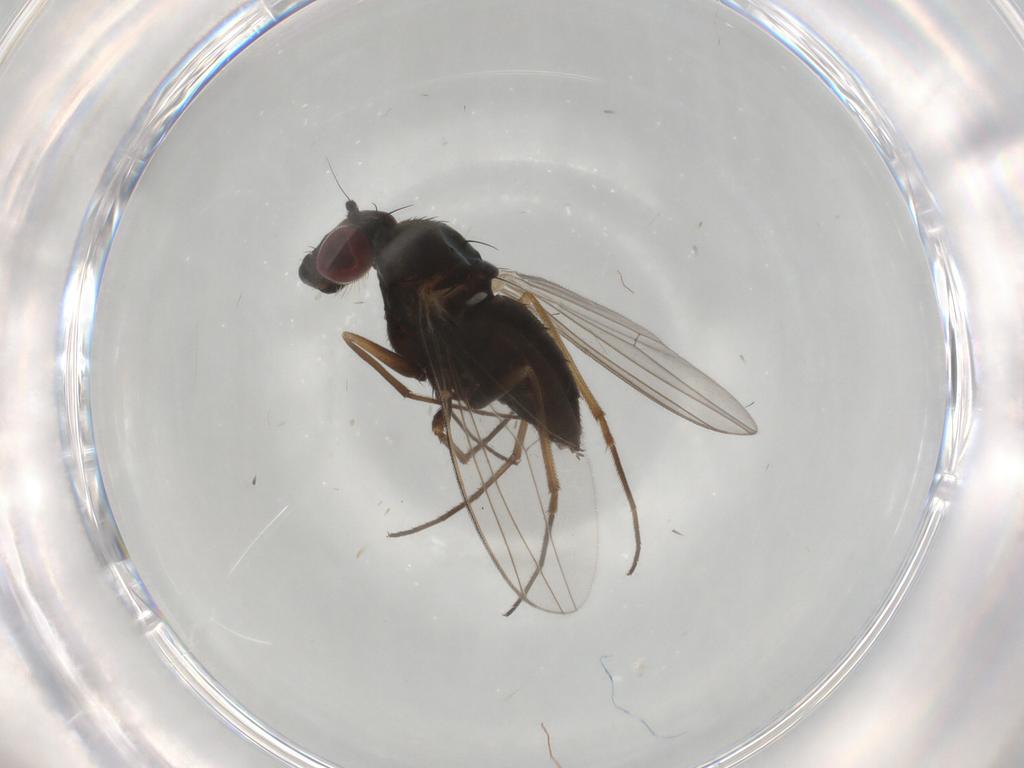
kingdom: Animalia
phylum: Arthropoda
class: Insecta
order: Diptera
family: Dolichopodidae
